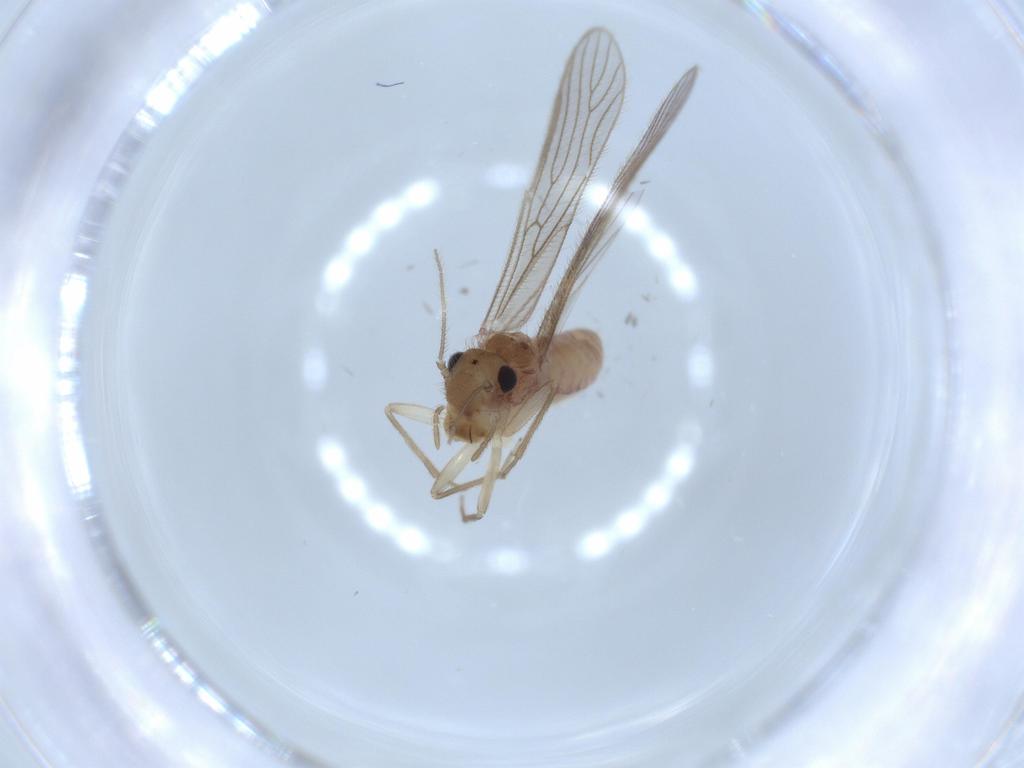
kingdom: Animalia
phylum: Arthropoda
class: Insecta
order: Psocodea
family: Cladiopsocidae
